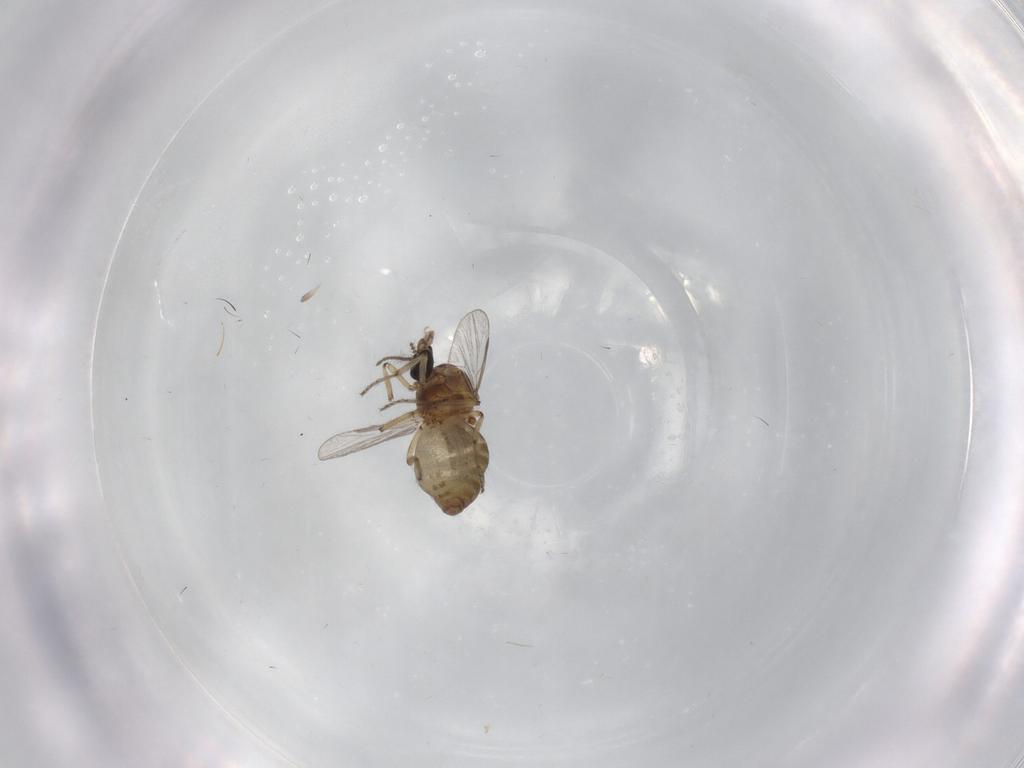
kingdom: Animalia
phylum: Arthropoda
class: Insecta
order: Diptera
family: Ceratopogonidae
